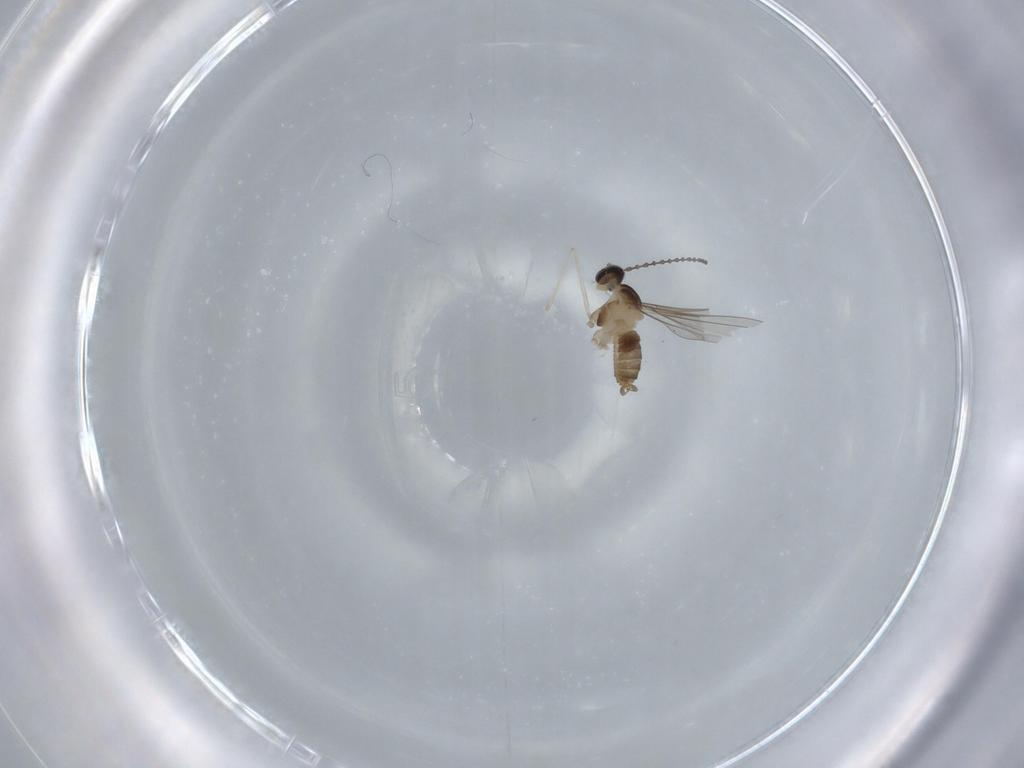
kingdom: Animalia
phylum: Arthropoda
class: Insecta
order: Diptera
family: Psychodidae
